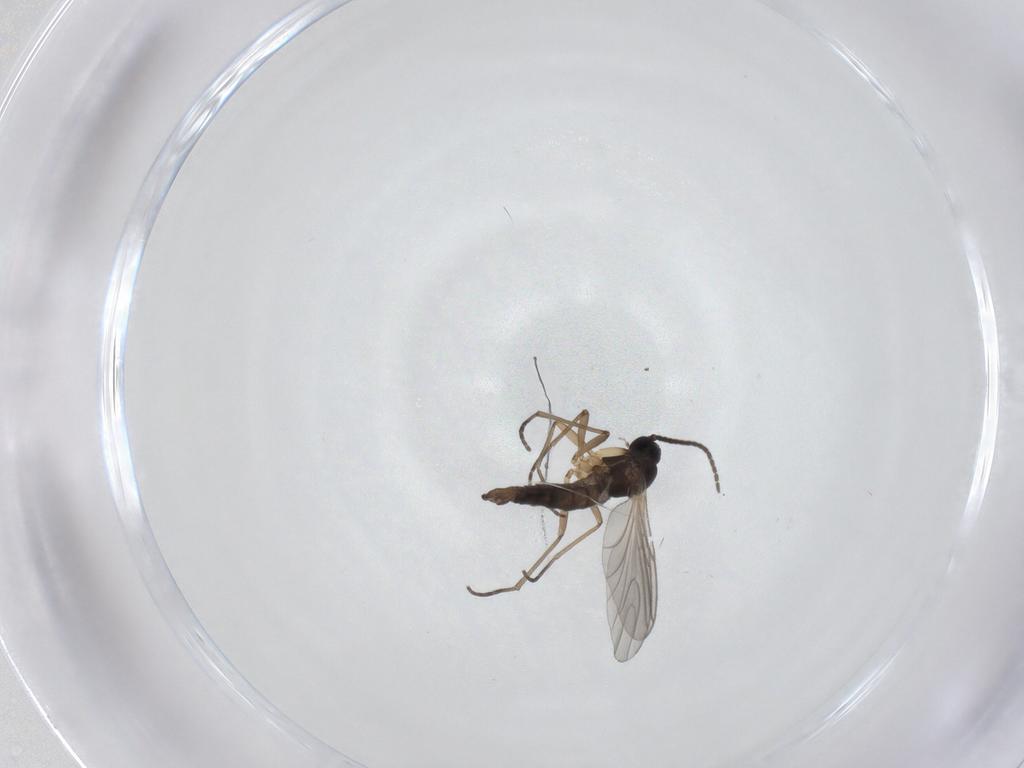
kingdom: Animalia
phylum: Arthropoda
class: Insecta
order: Diptera
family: Sciaridae
